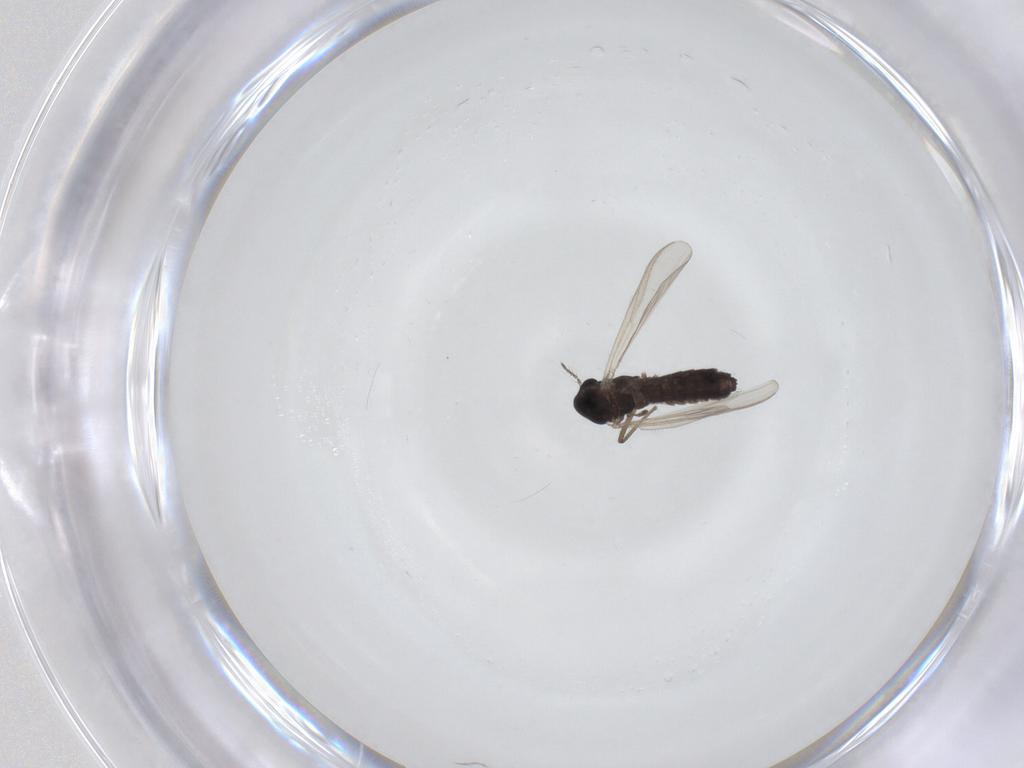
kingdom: Animalia
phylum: Arthropoda
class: Insecta
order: Diptera
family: Chironomidae
